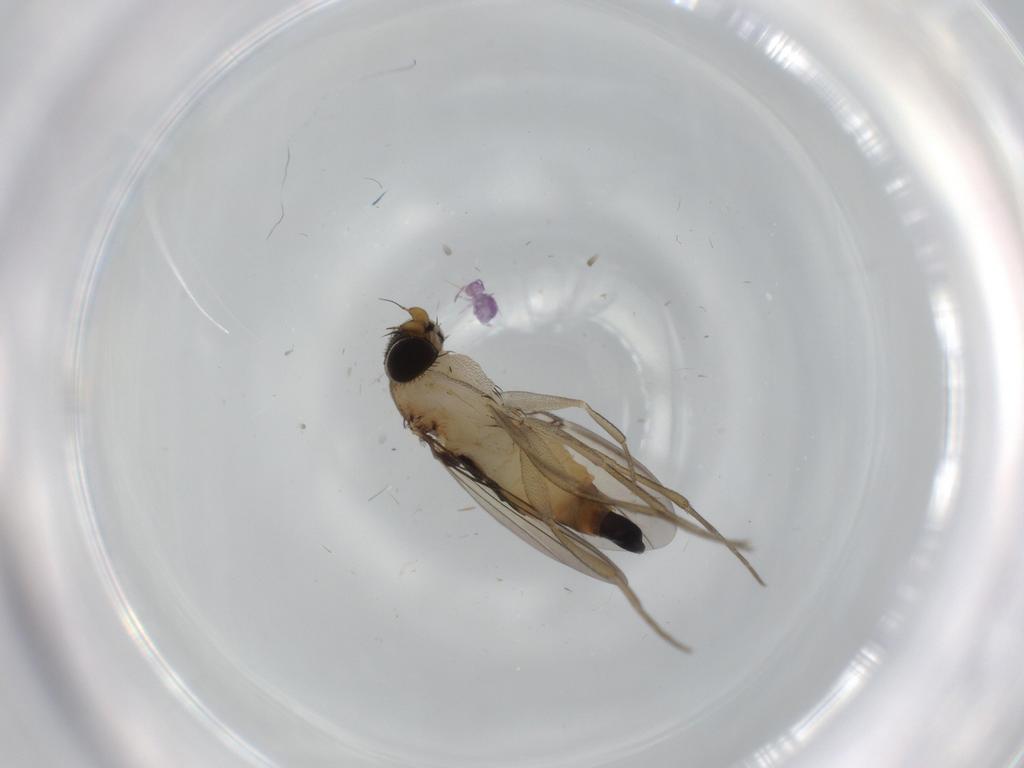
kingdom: Animalia
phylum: Arthropoda
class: Insecta
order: Diptera
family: Phoridae
